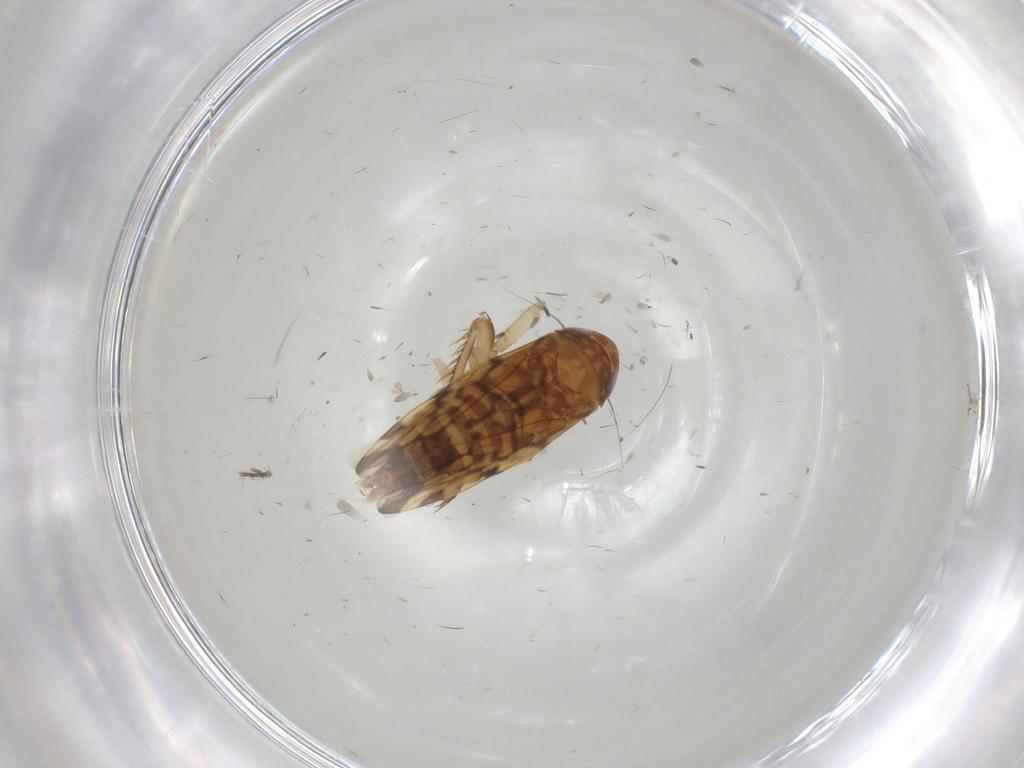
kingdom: Animalia
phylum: Arthropoda
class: Insecta
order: Hemiptera
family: Cicadellidae
